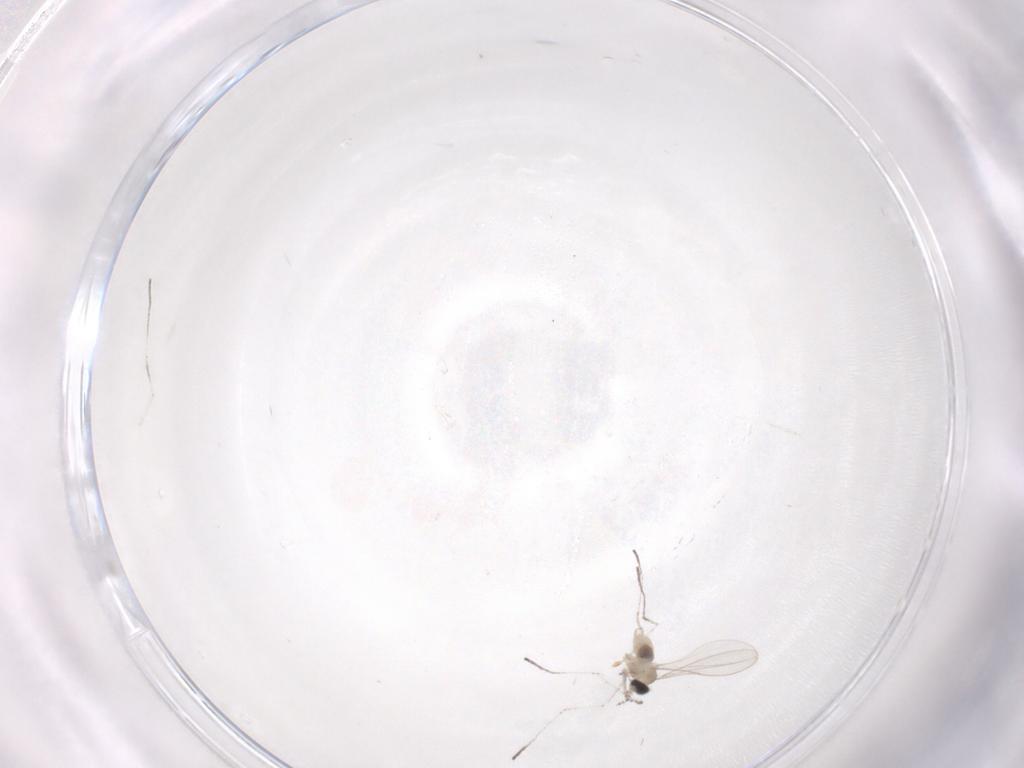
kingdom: Animalia
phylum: Arthropoda
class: Insecta
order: Diptera
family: Cecidomyiidae
